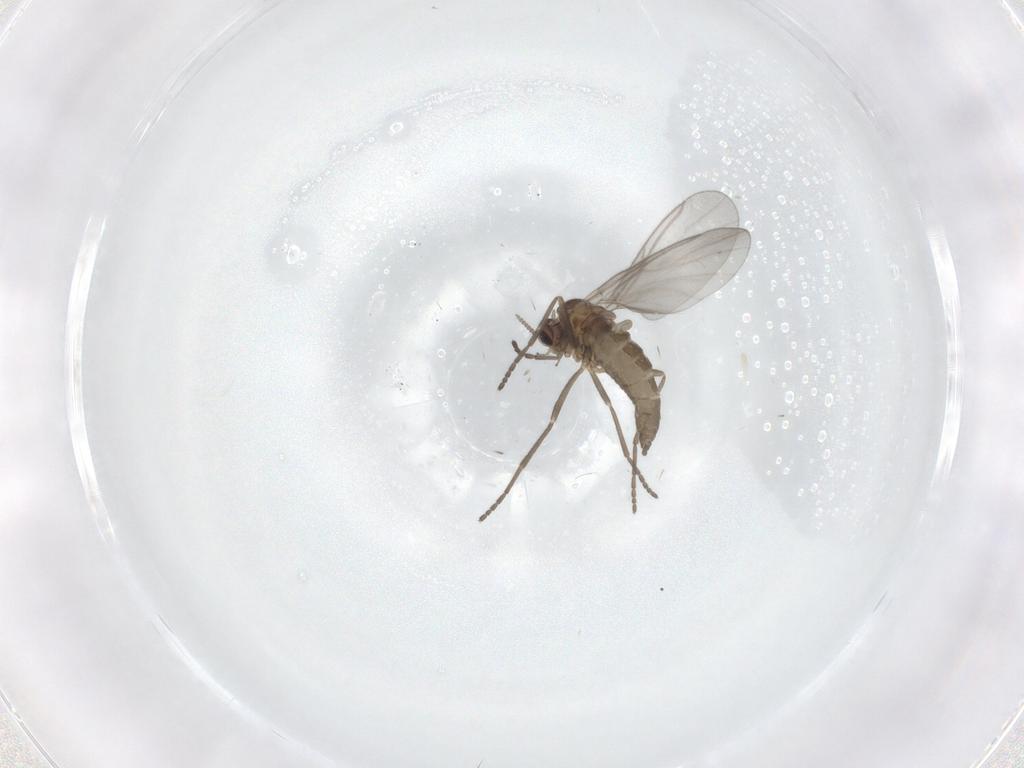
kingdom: Animalia
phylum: Arthropoda
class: Insecta
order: Diptera
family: Cecidomyiidae
